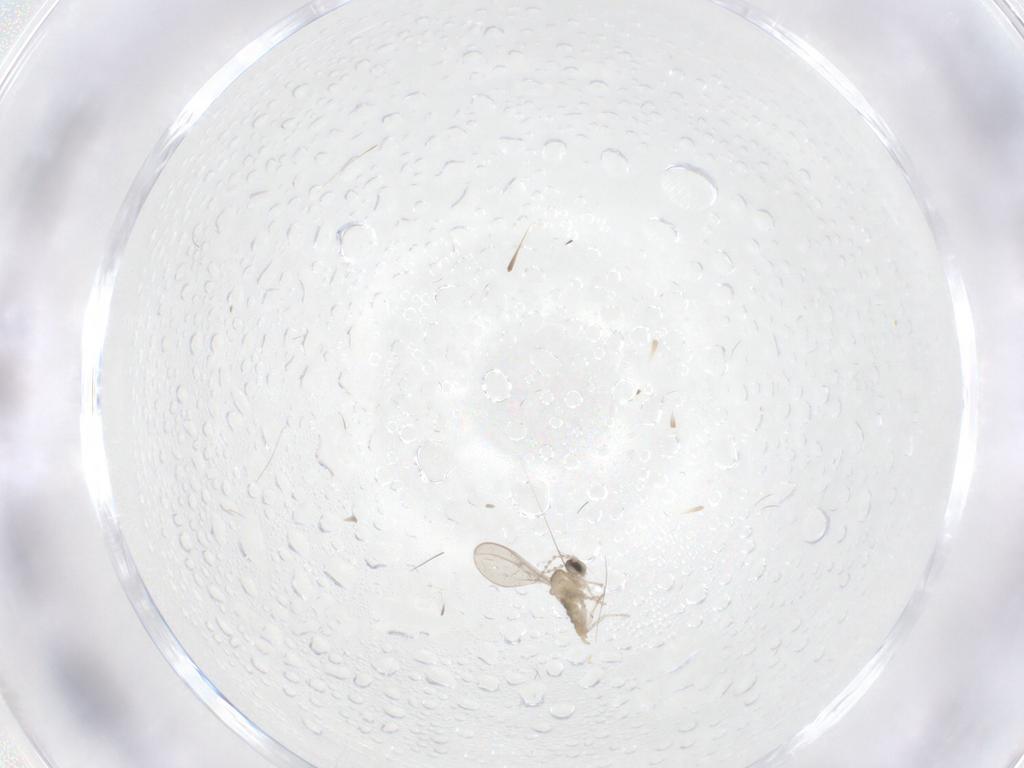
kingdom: Animalia
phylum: Arthropoda
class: Insecta
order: Diptera
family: Cecidomyiidae
